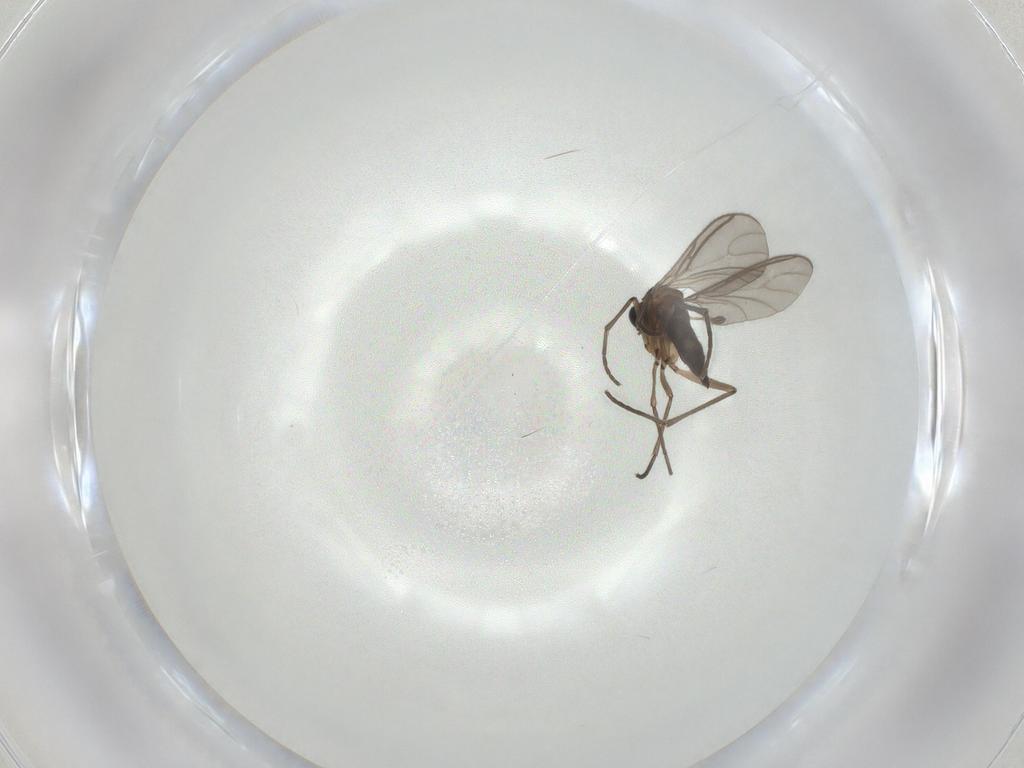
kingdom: Animalia
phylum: Arthropoda
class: Insecta
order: Diptera
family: Sciaridae
